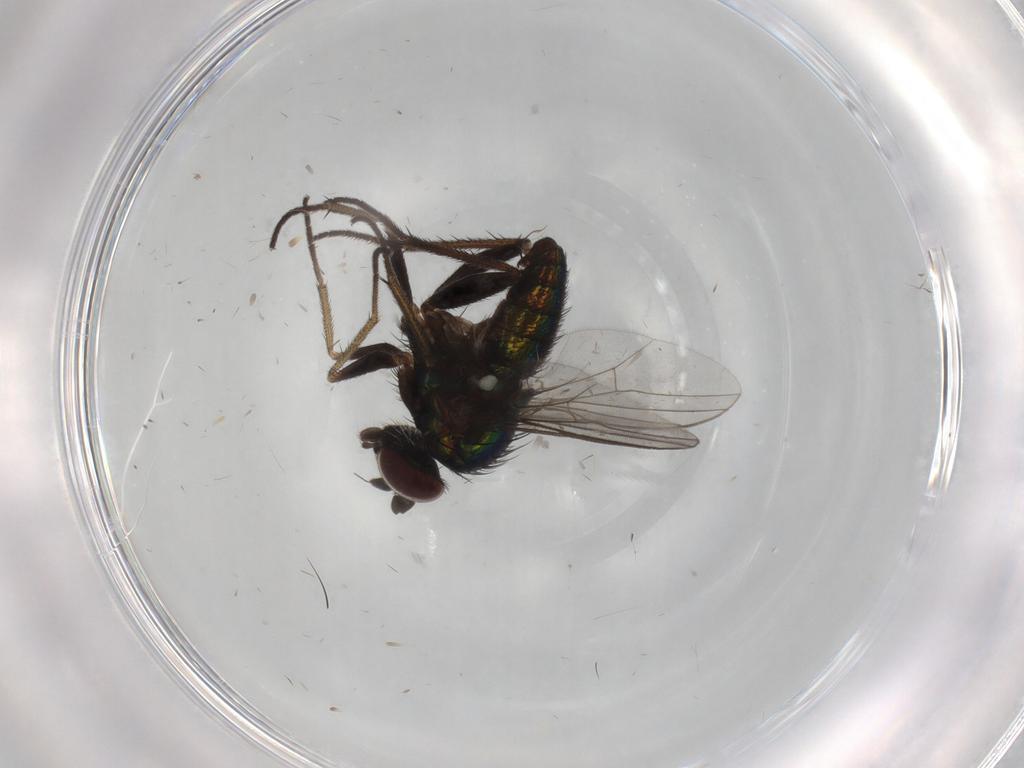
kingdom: Animalia
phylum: Arthropoda
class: Insecta
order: Diptera
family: Dolichopodidae
